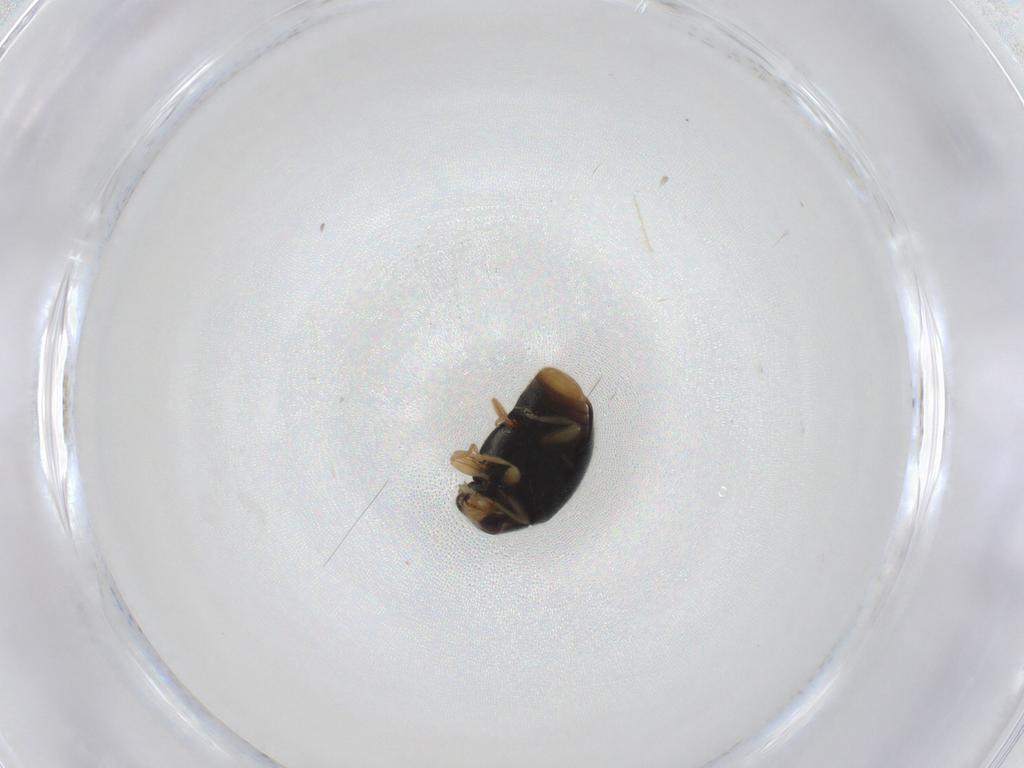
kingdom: Animalia
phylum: Arthropoda
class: Insecta
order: Coleoptera
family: Coccinellidae
